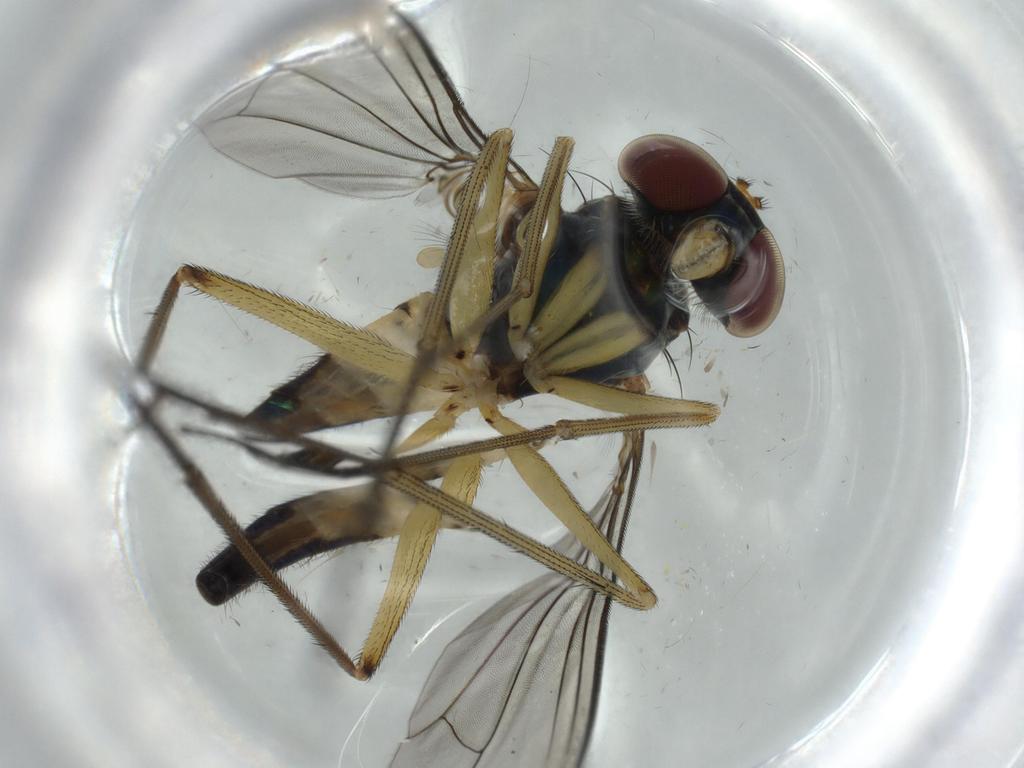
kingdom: Animalia
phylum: Arthropoda
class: Insecta
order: Diptera
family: Dolichopodidae
